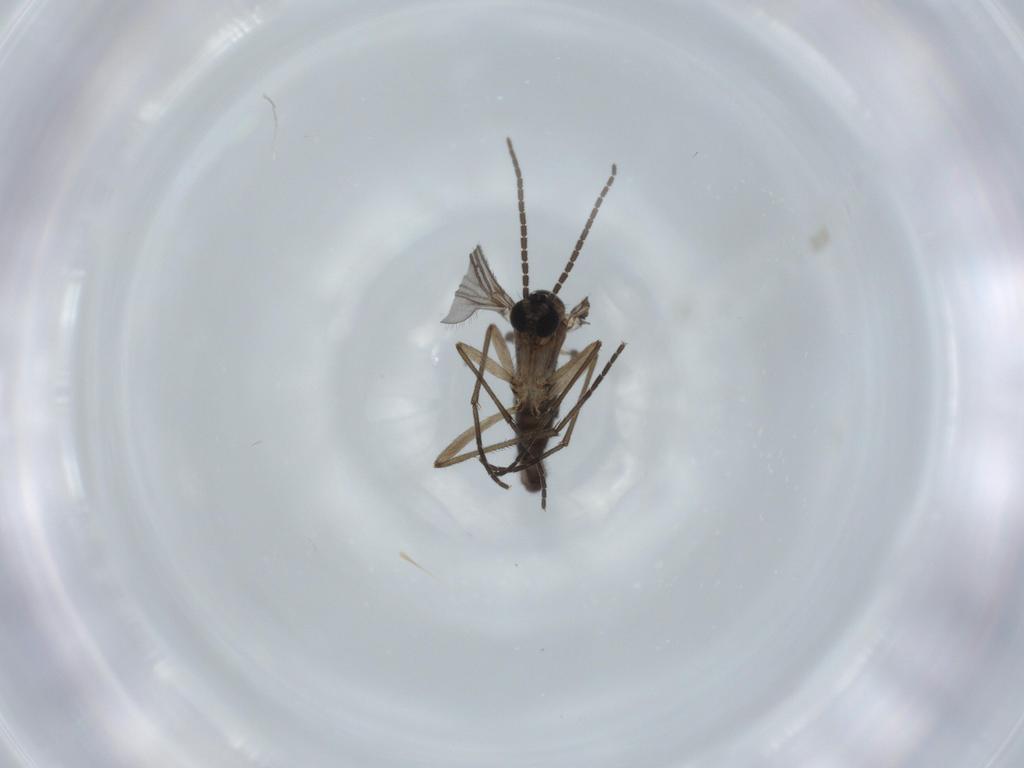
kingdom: Animalia
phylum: Arthropoda
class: Insecta
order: Diptera
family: Sciaridae
